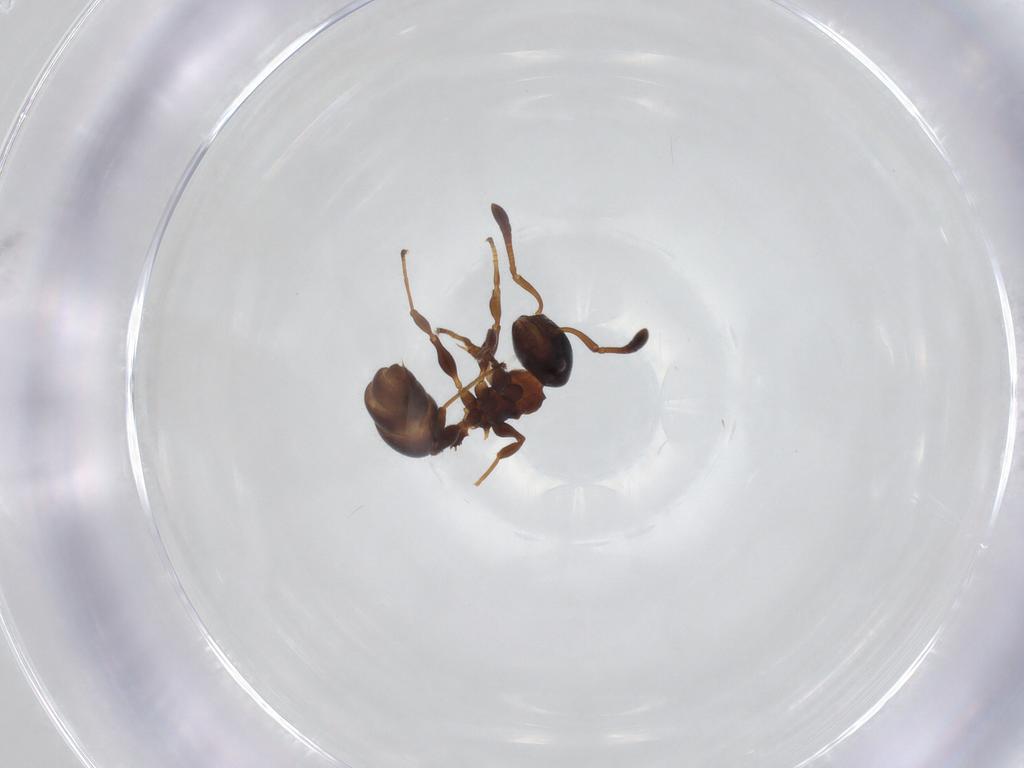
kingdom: Animalia
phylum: Arthropoda
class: Insecta
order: Hymenoptera
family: Formicidae
